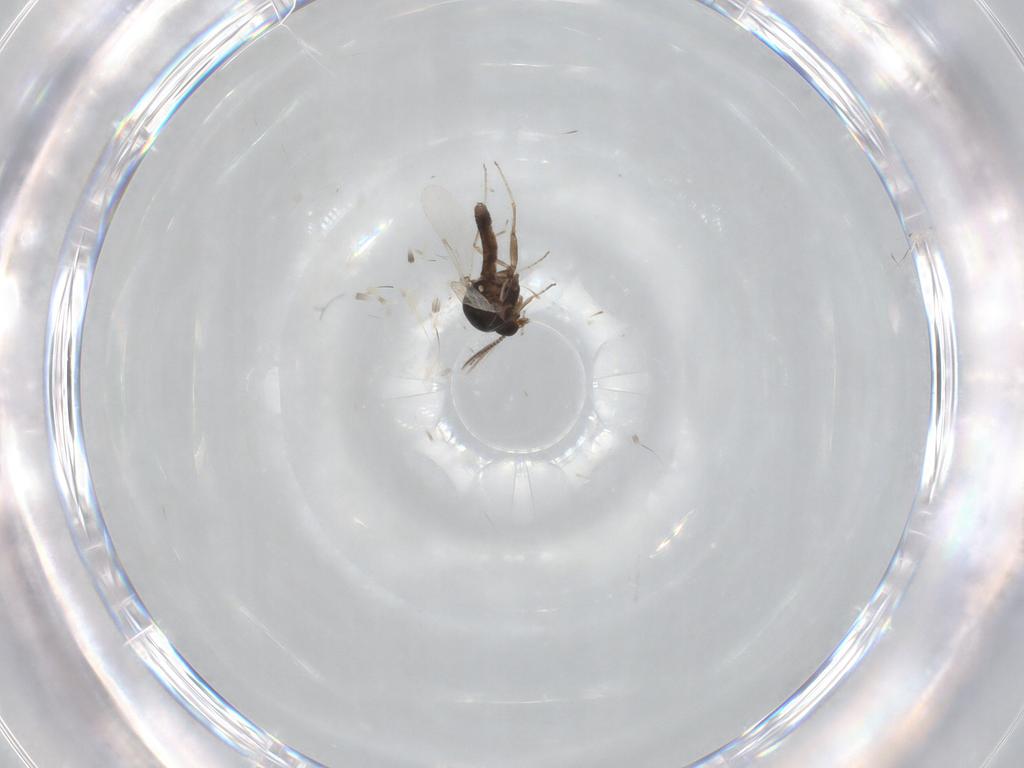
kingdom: Animalia
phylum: Arthropoda
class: Insecta
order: Diptera
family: Ceratopogonidae
